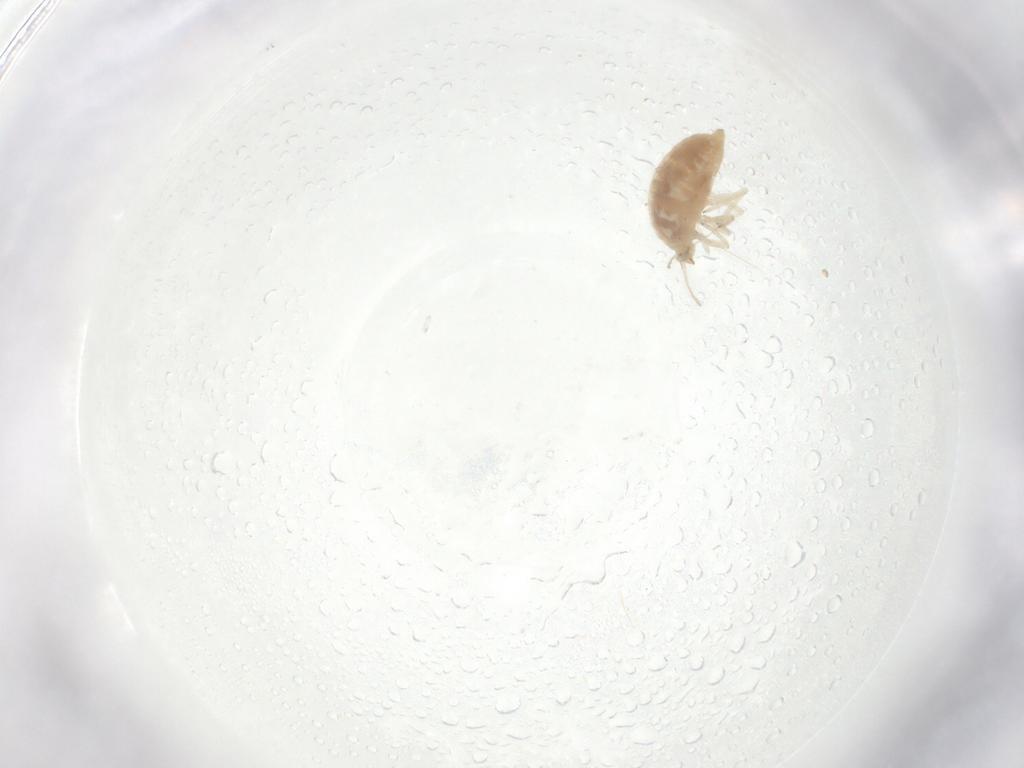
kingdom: Animalia
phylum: Arthropoda
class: Insecta
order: Neuroptera
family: Coniopterygidae
